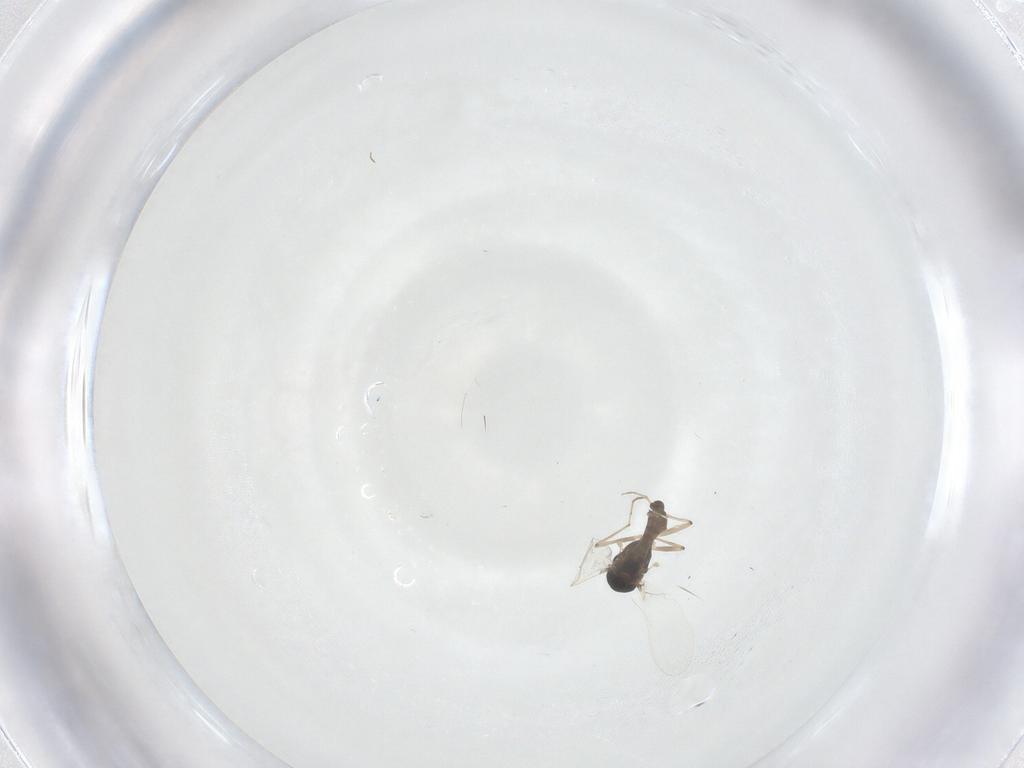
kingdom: Animalia
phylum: Arthropoda
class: Insecta
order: Diptera
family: Chironomidae
